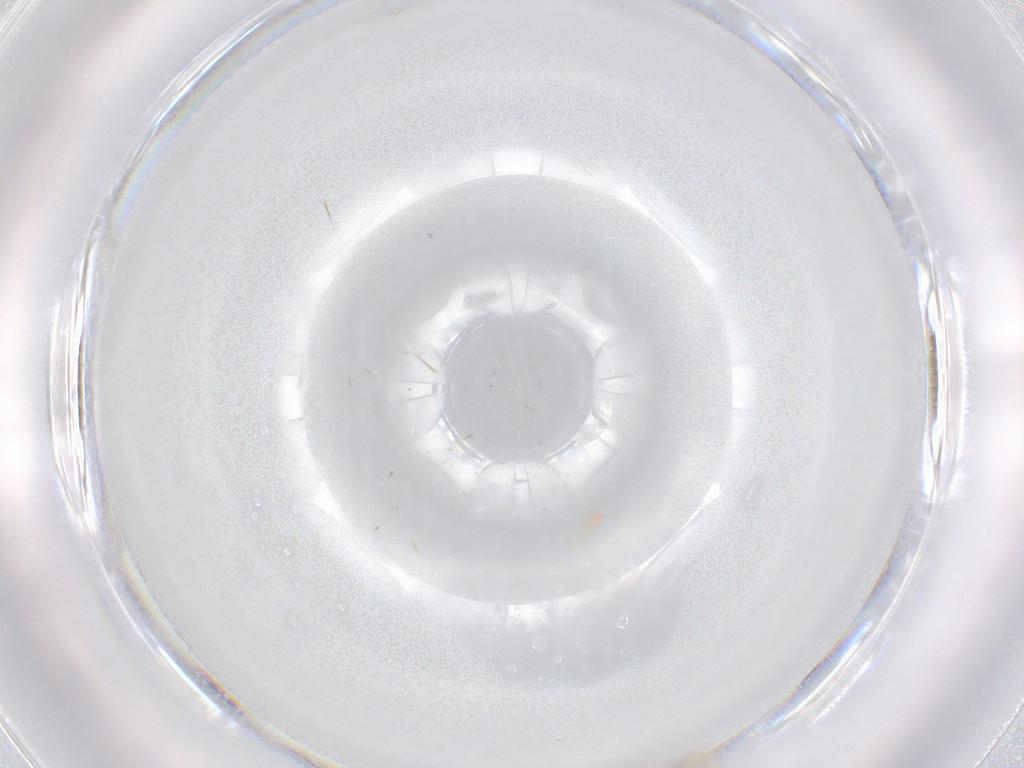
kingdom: Animalia
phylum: Arthropoda
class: Insecta
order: Diptera
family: Cecidomyiidae
